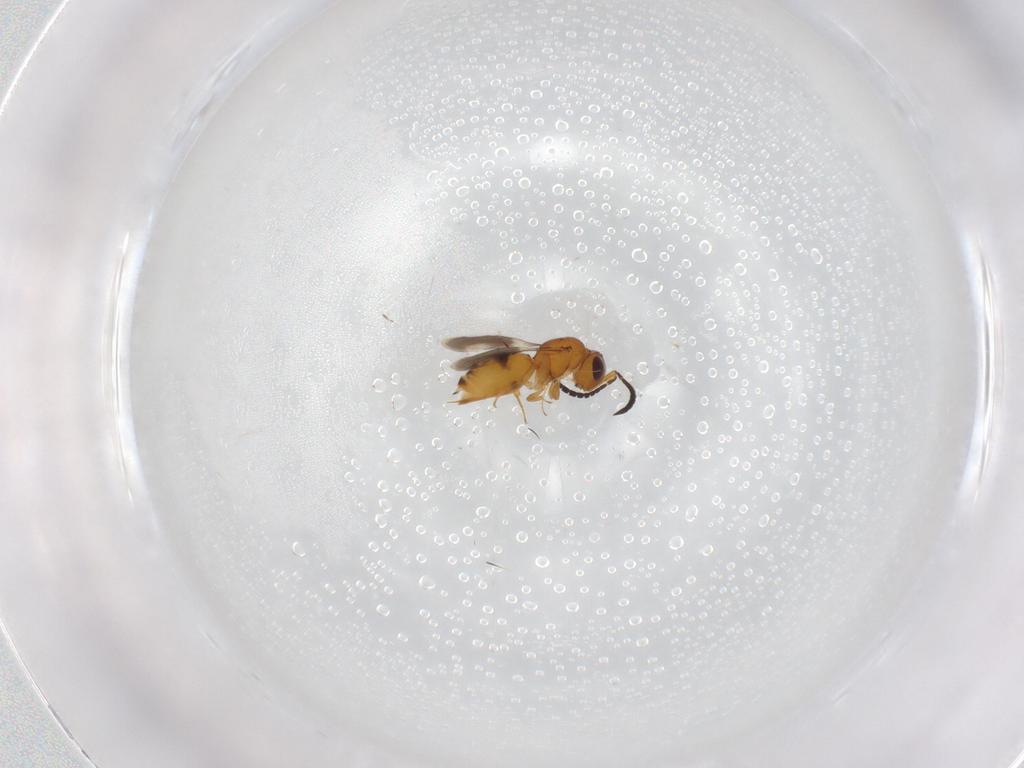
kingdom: Animalia
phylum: Arthropoda
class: Insecta
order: Hymenoptera
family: Ceraphronidae
